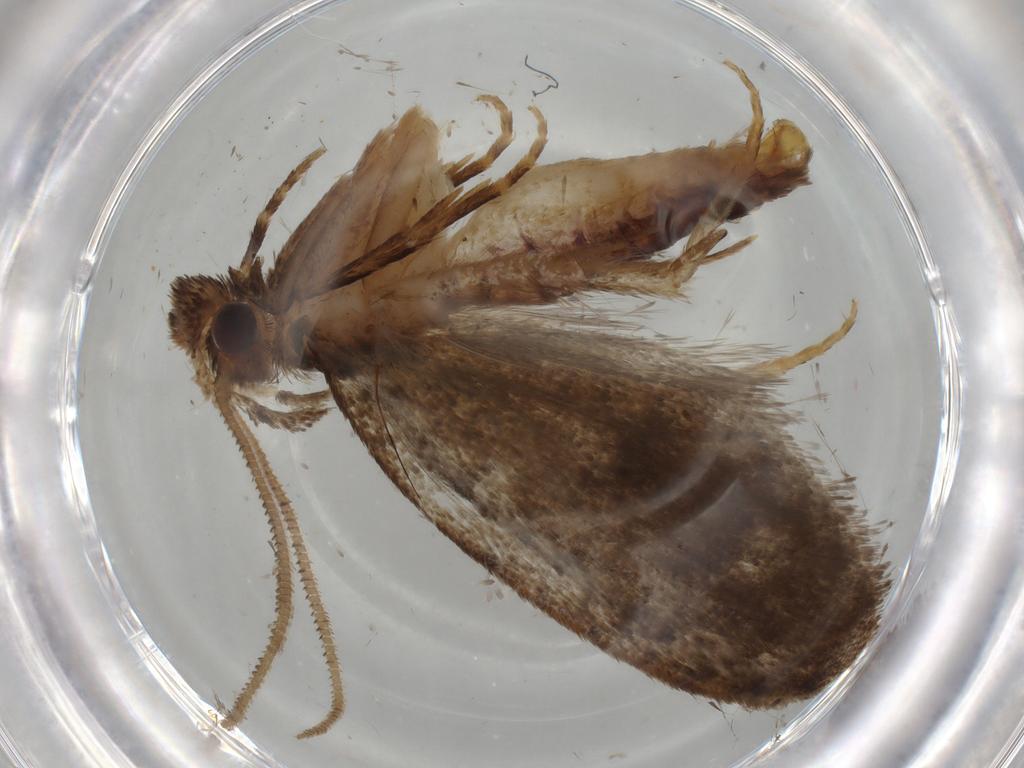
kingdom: Animalia
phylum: Arthropoda
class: Insecta
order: Lepidoptera
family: Tineidae
